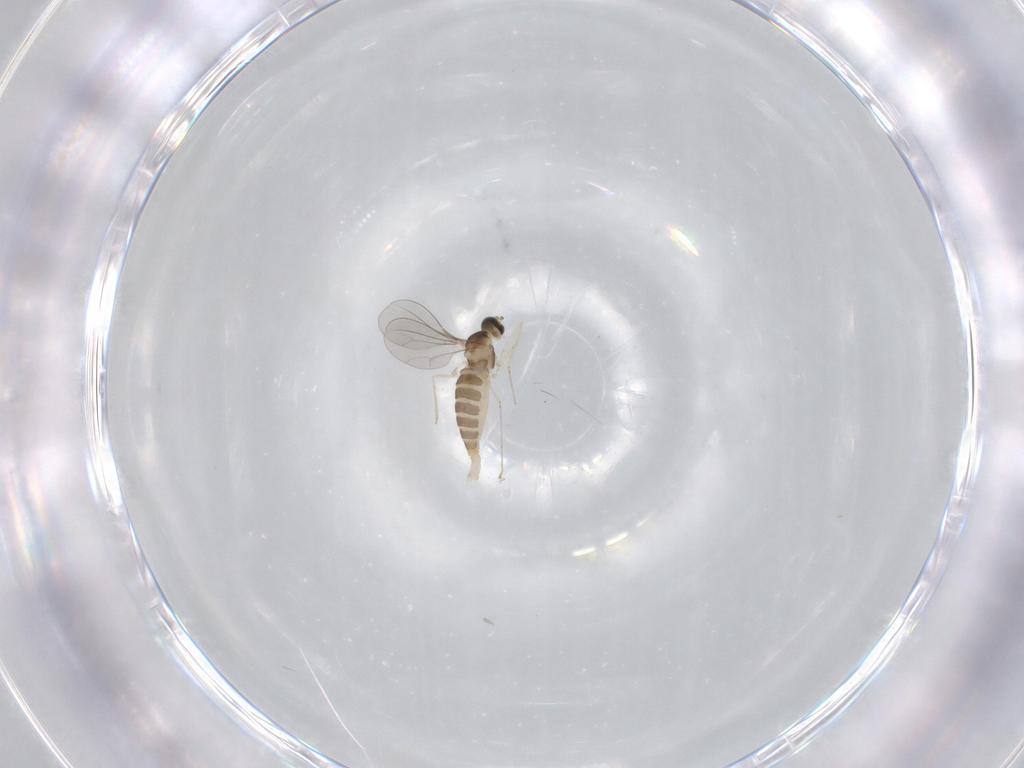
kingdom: Animalia
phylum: Arthropoda
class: Insecta
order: Diptera
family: Cecidomyiidae
